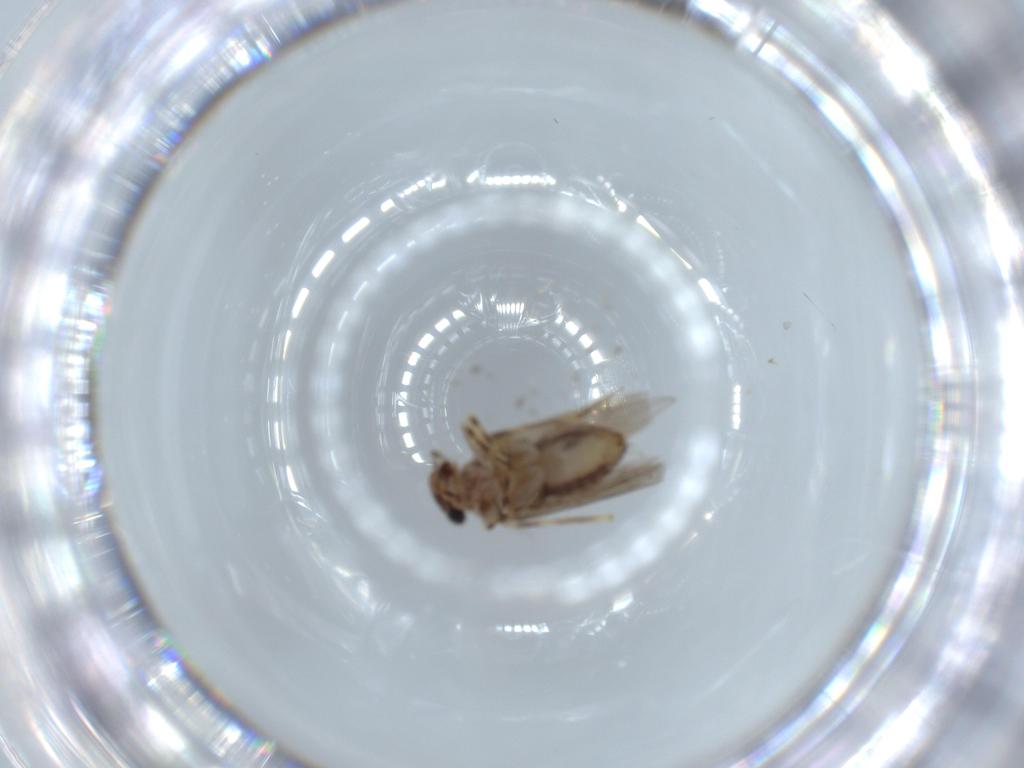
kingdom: Animalia
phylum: Arthropoda
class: Insecta
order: Psocodea
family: Lepidopsocidae
